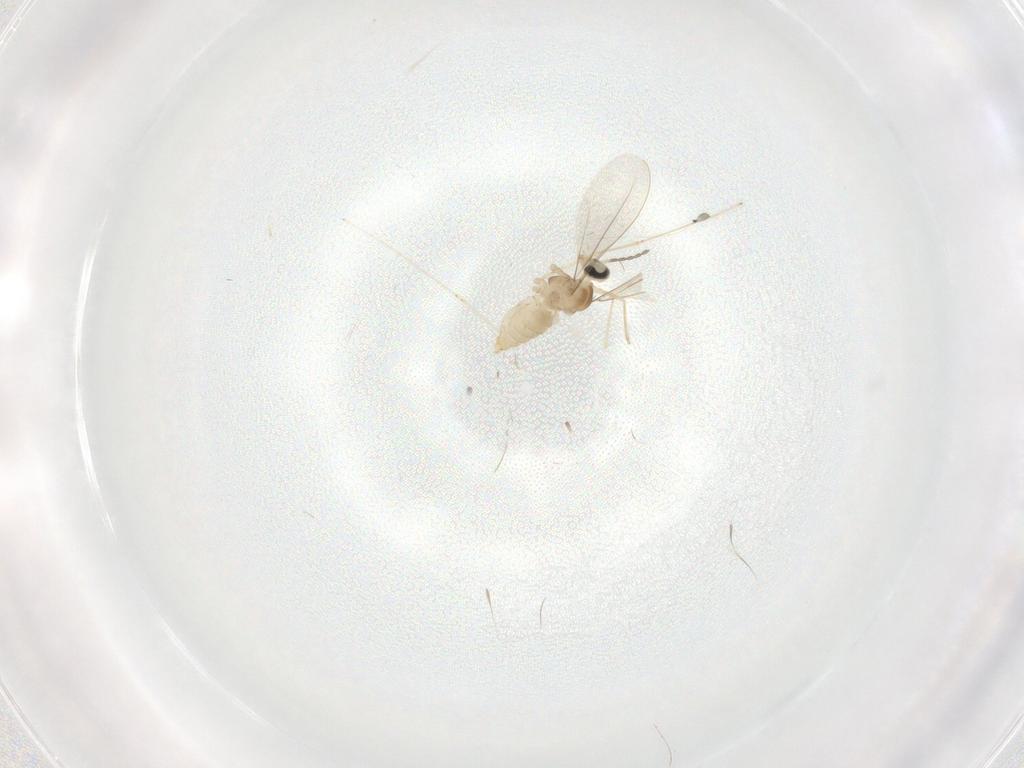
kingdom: Animalia
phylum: Arthropoda
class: Insecta
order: Diptera
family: Cecidomyiidae
